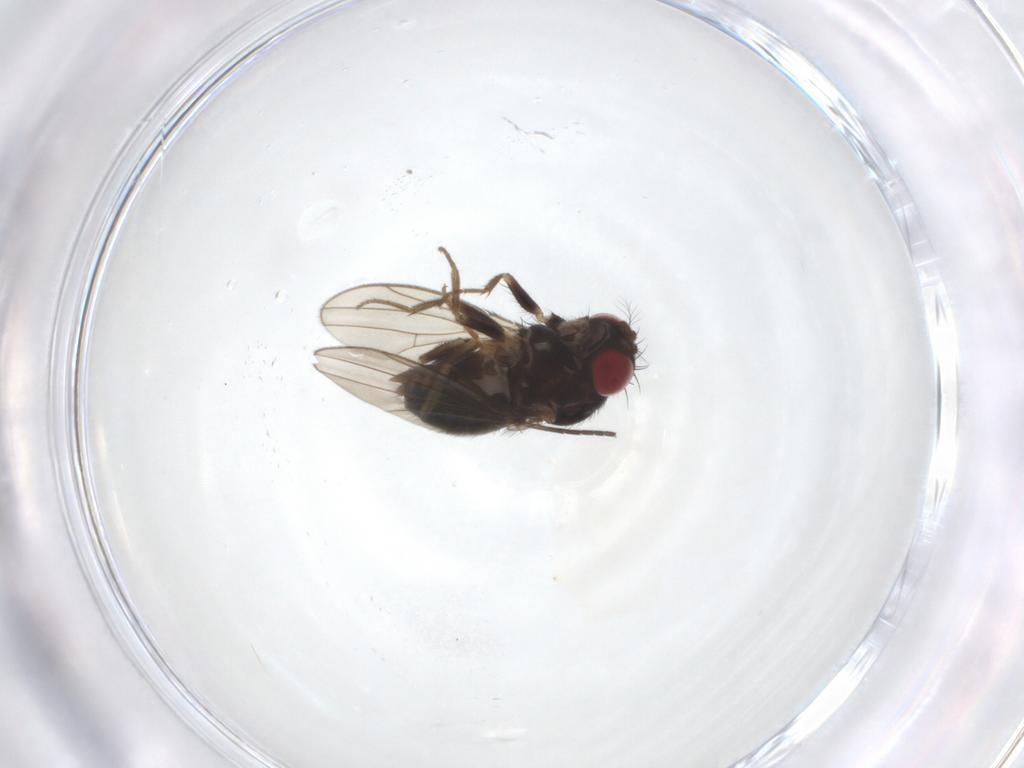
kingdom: Animalia
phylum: Arthropoda
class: Insecta
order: Diptera
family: Drosophilidae
